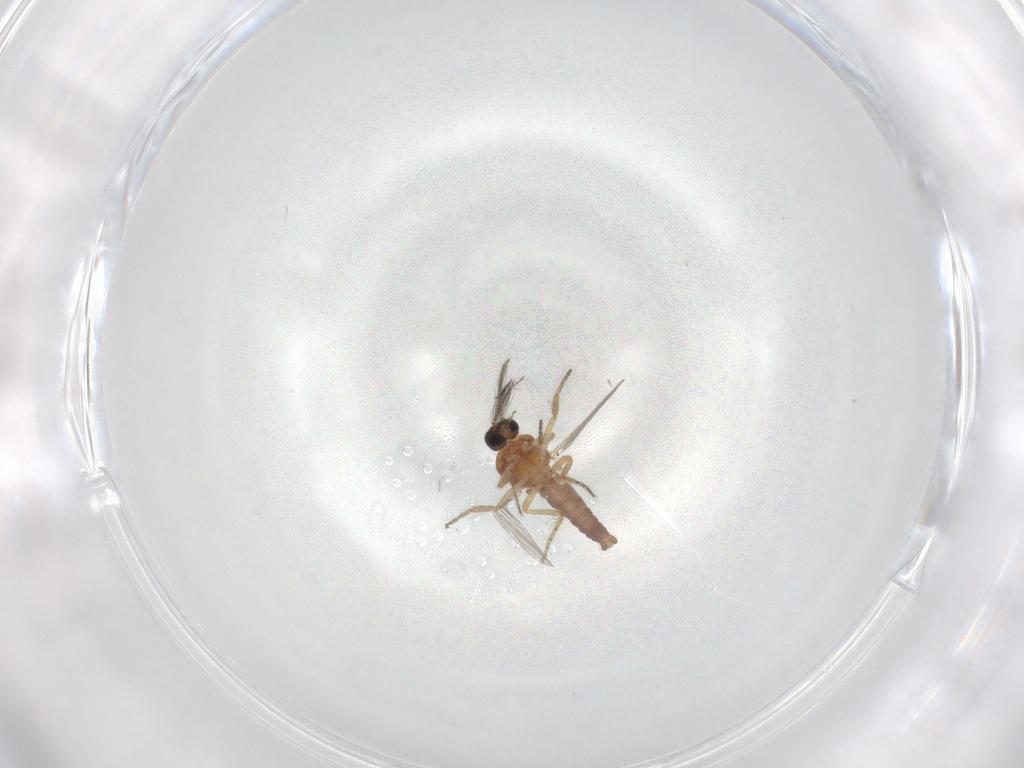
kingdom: Animalia
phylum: Arthropoda
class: Insecta
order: Diptera
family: Ceratopogonidae
